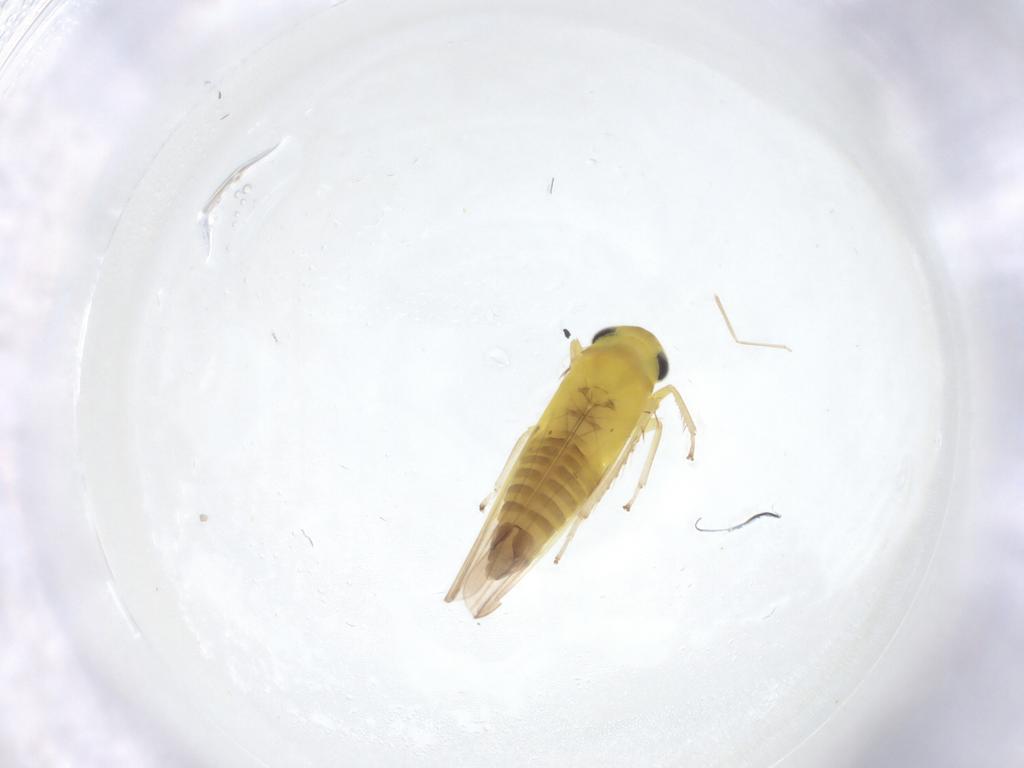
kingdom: Animalia
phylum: Arthropoda
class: Insecta
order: Hemiptera
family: Cicadellidae
